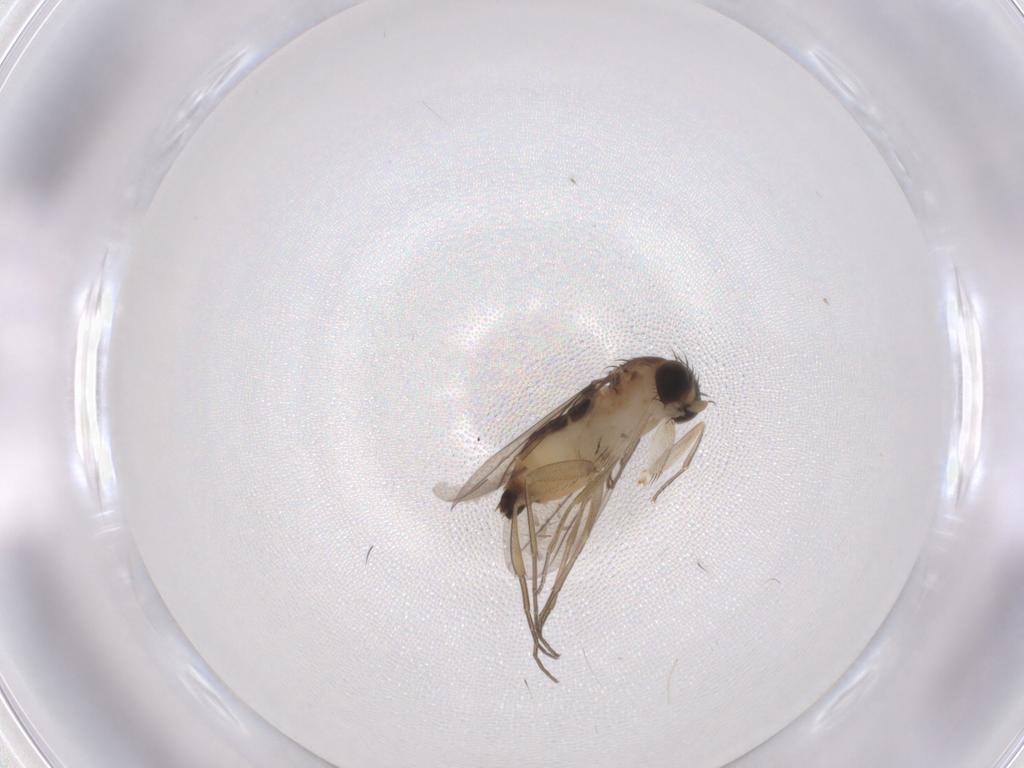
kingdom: Animalia
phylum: Arthropoda
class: Insecta
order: Diptera
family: Phoridae
